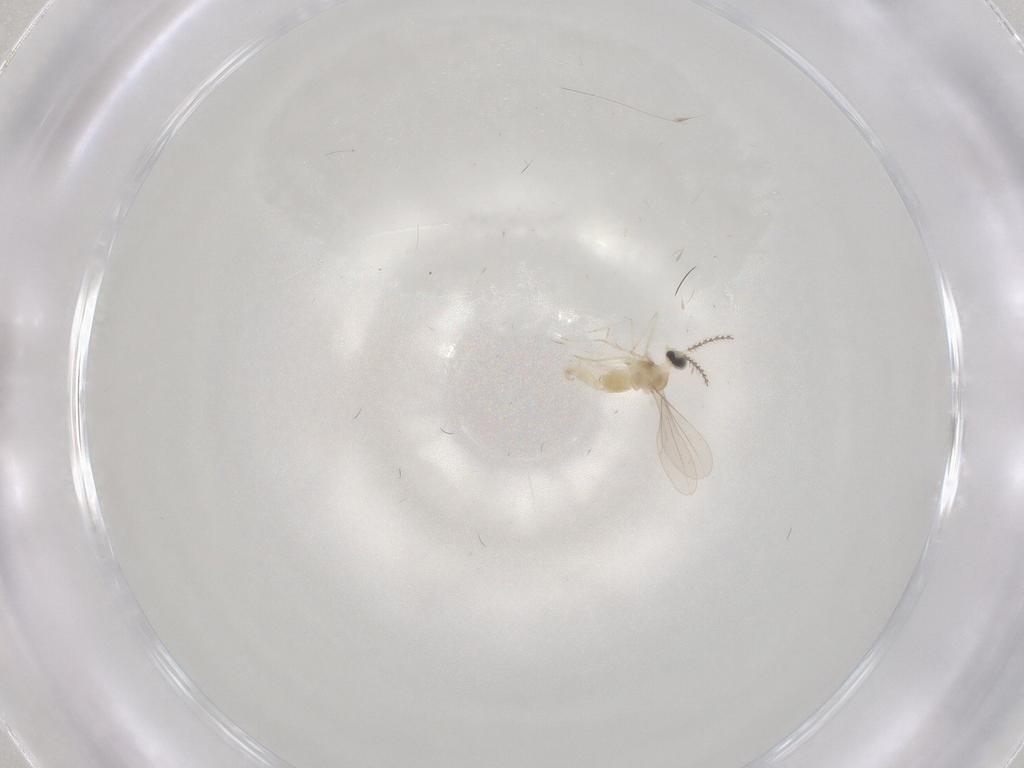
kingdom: Animalia
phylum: Arthropoda
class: Insecta
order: Diptera
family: Cecidomyiidae
